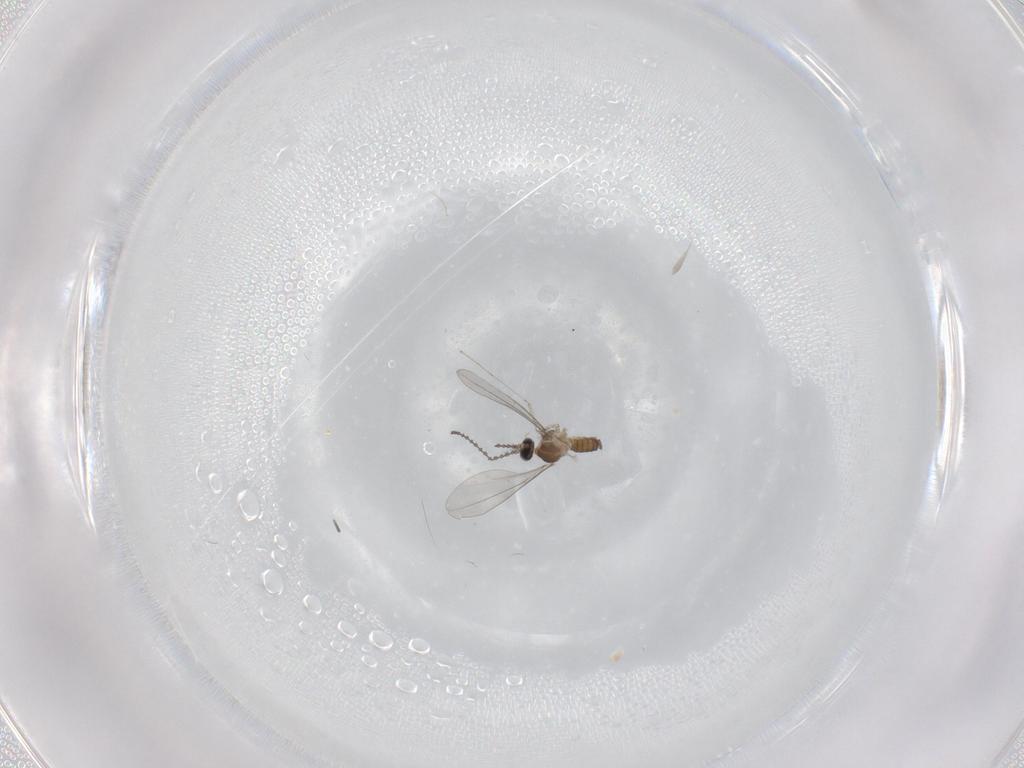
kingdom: Animalia
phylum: Arthropoda
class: Insecta
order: Diptera
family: Cecidomyiidae
